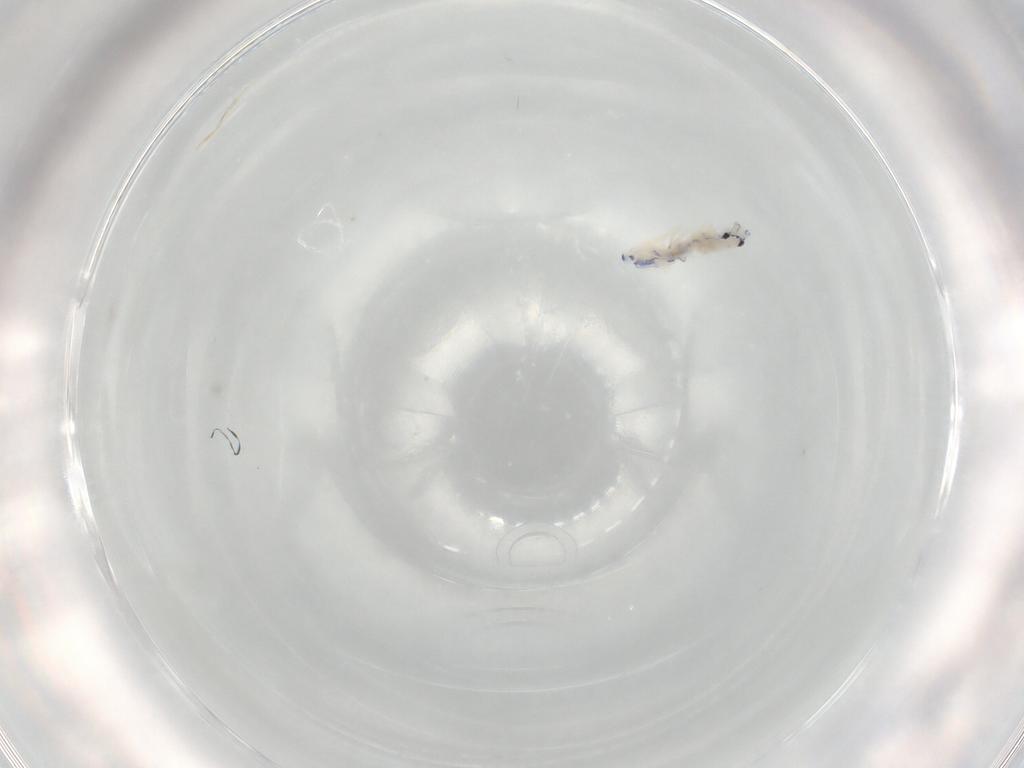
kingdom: Animalia
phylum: Arthropoda
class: Collembola
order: Entomobryomorpha
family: Entomobryidae
